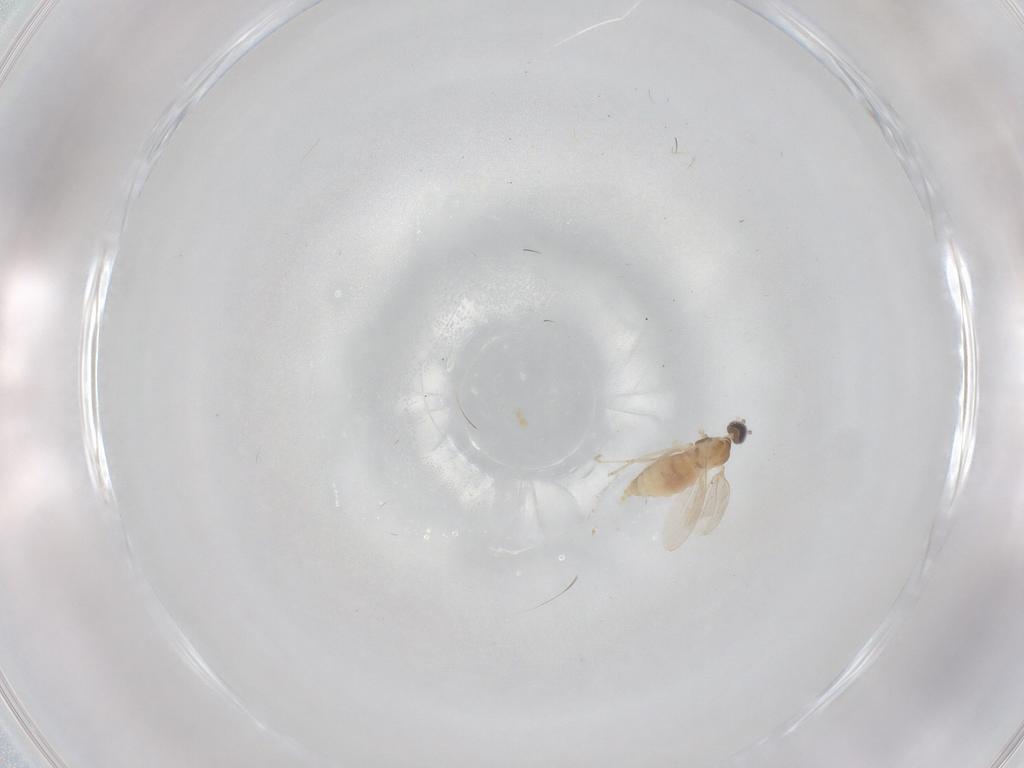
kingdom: Animalia
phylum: Arthropoda
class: Insecta
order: Diptera
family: Cecidomyiidae
